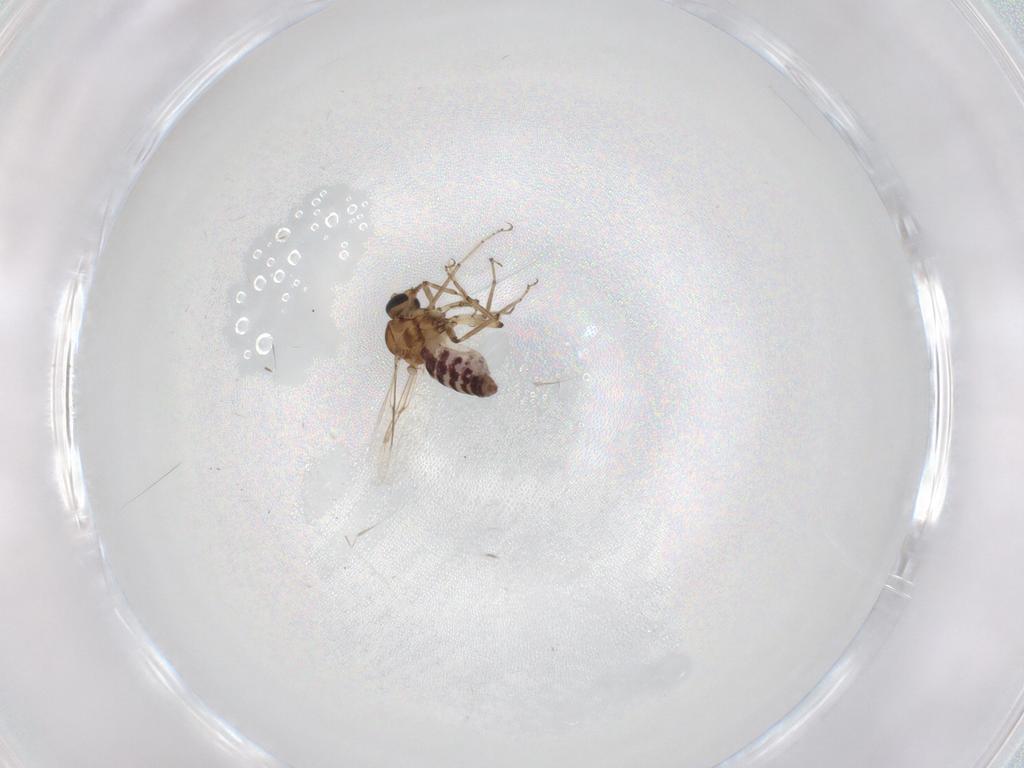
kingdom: Animalia
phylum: Arthropoda
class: Insecta
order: Diptera
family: Ceratopogonidae
